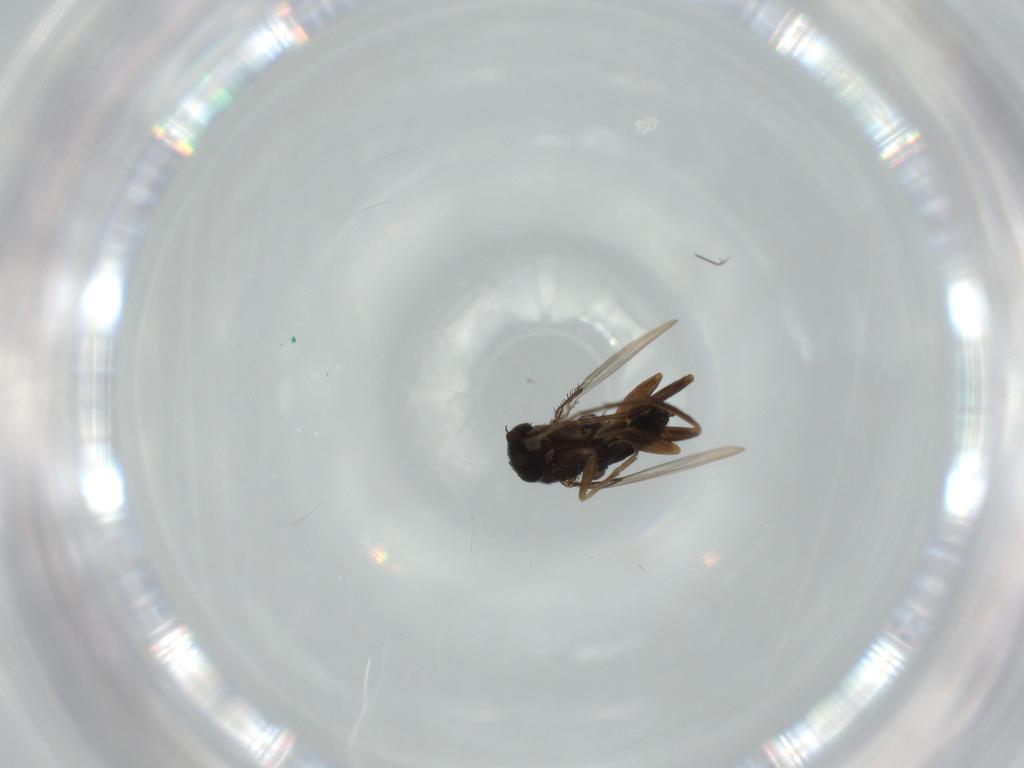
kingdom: Animalia
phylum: Arthropoda
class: Insecta
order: Diptera
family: Phoridae
